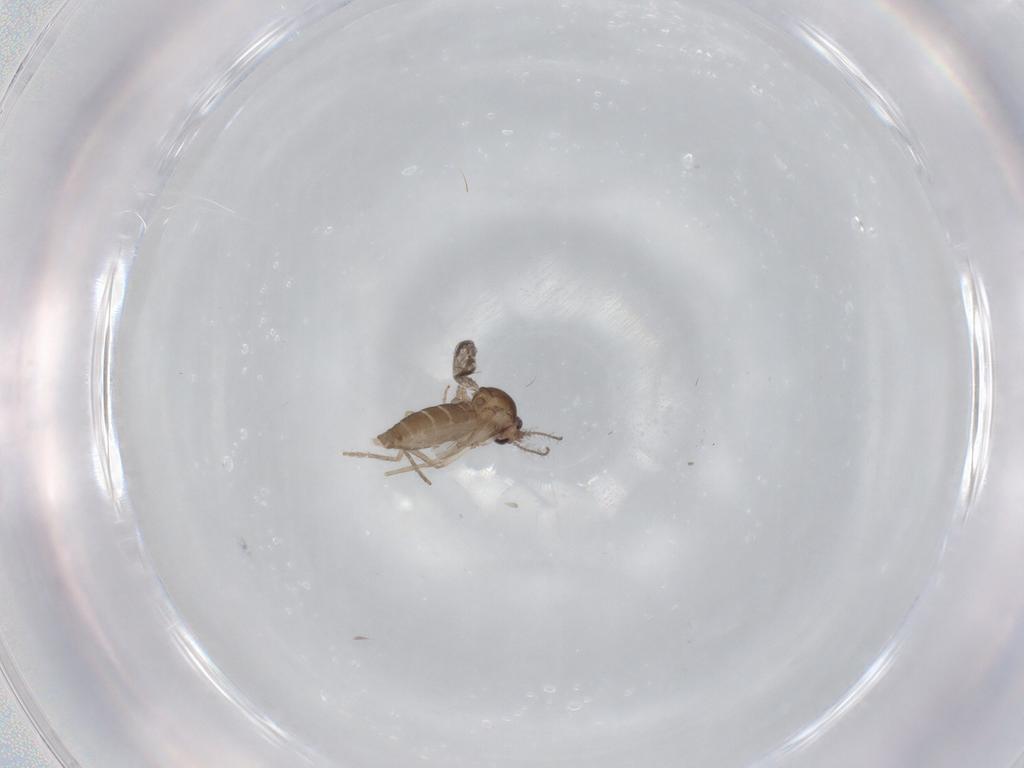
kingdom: Animalia
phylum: Arthropoda
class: Insecta
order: Diptera
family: Ceratopogonidae
